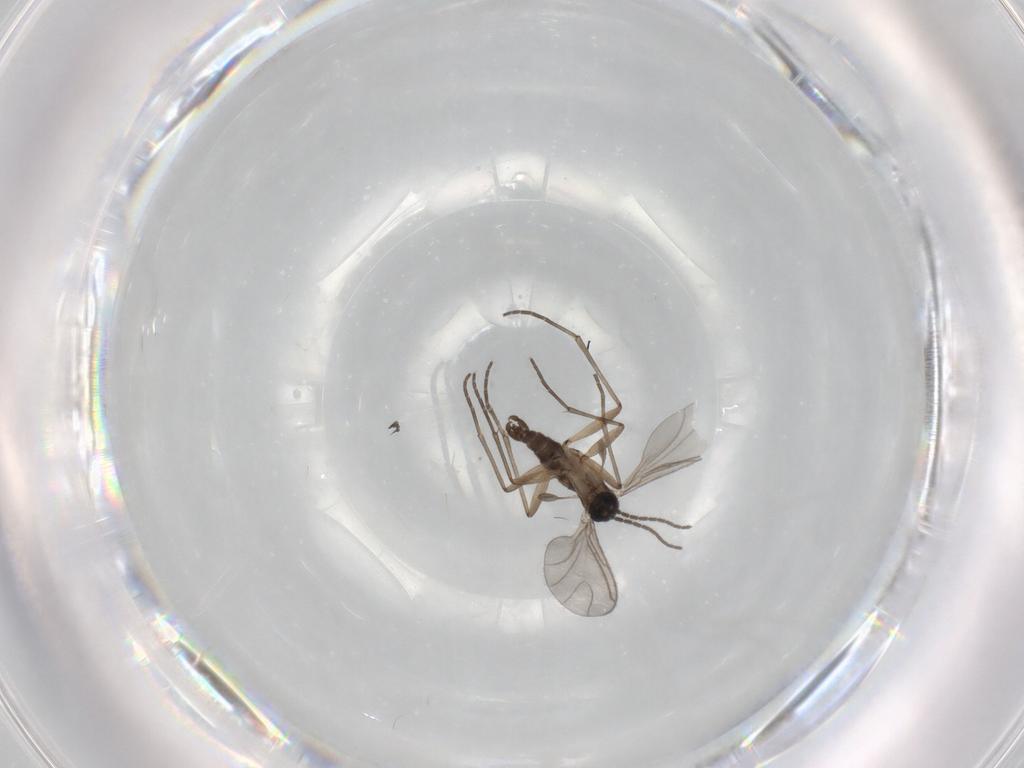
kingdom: Animalia
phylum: Arthropoda
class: Insecta
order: Diptera
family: Sciaridae
